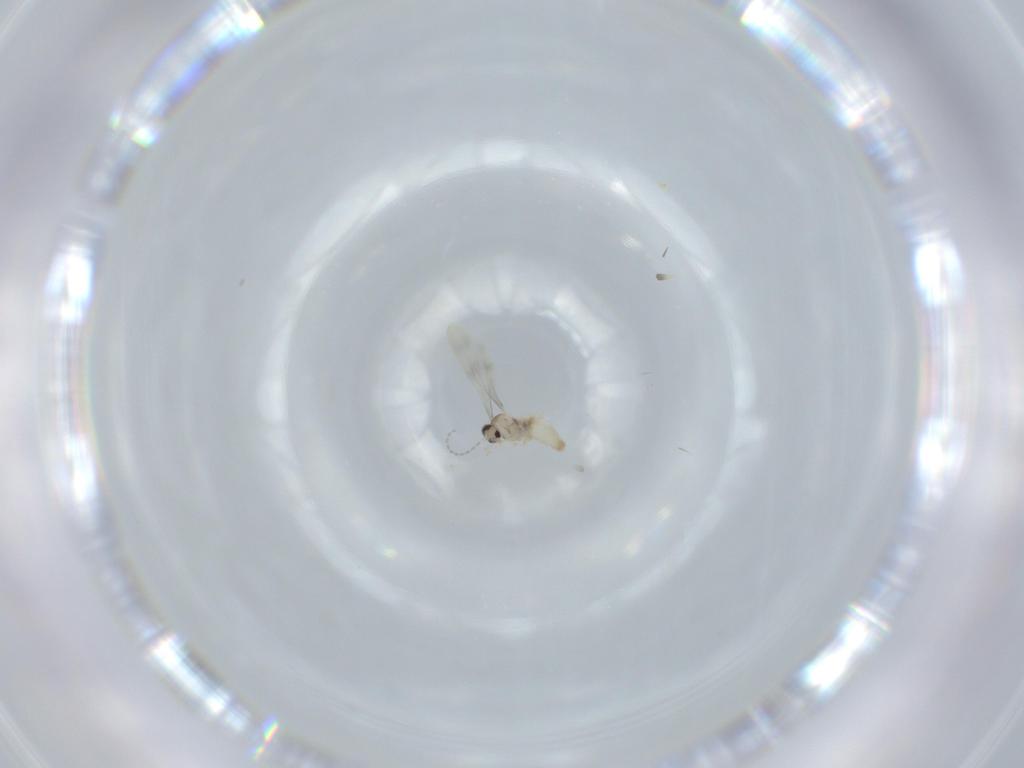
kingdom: Animalia
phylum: Arthropoda
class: Insecta
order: Diptera
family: Cecidomyiidae
